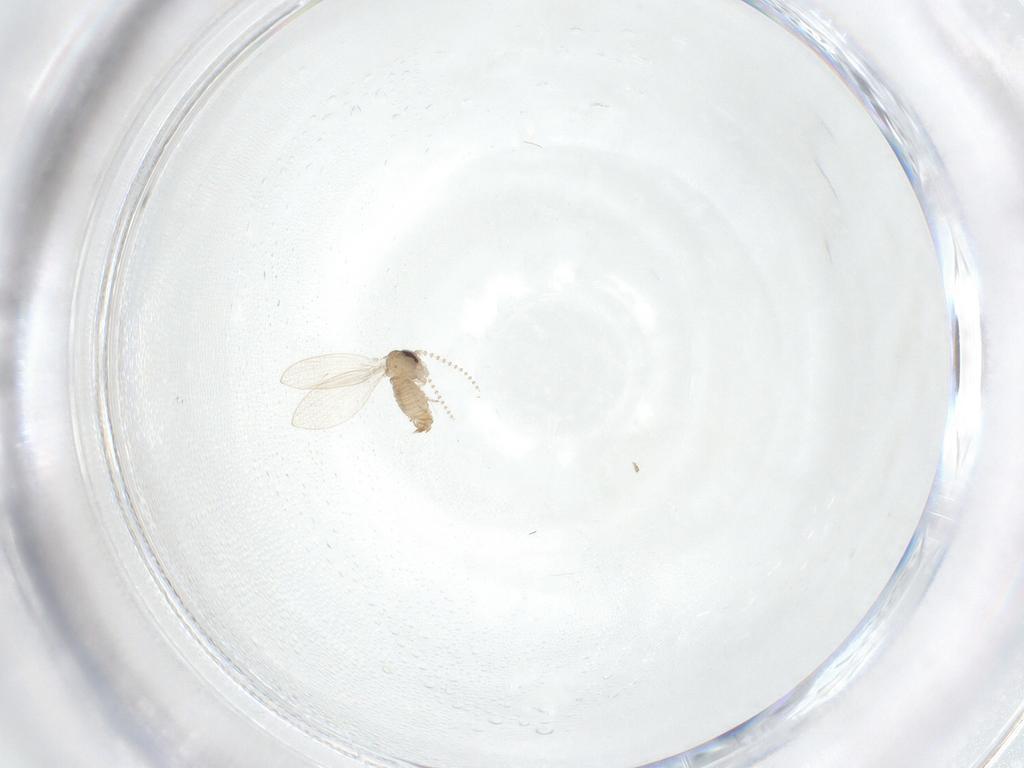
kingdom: Animalia
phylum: Arthropoda
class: Insecta
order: Diptera
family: Psychodidae
